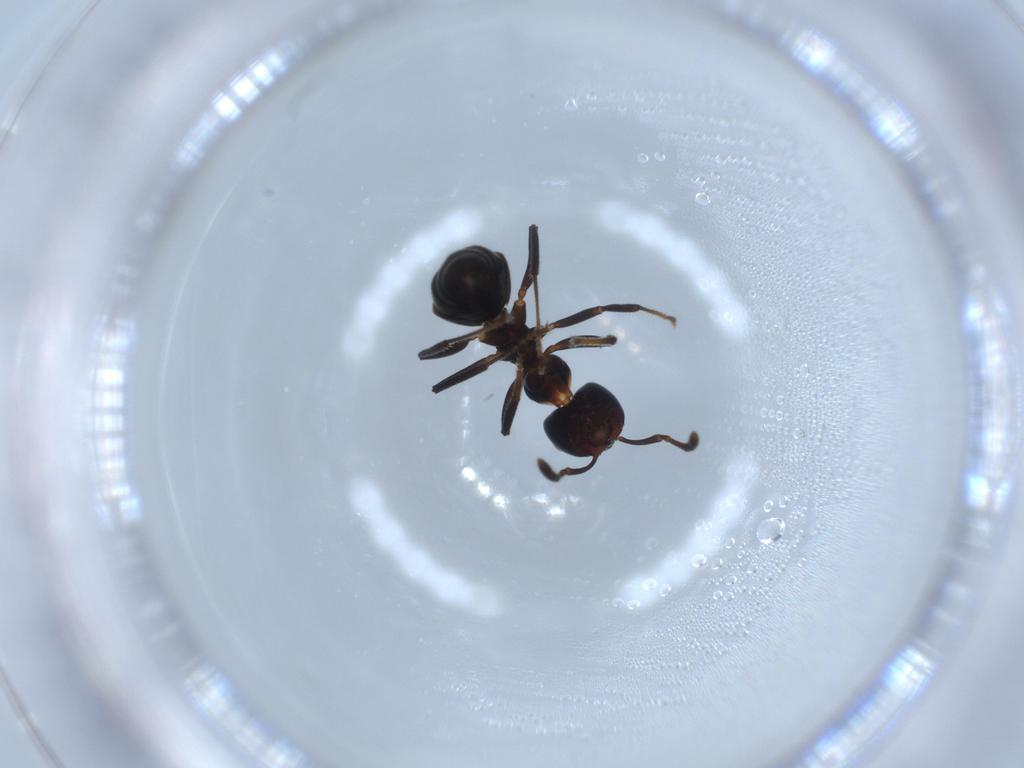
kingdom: Animalia
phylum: Arthropoda
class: Insecta
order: Hymenoptera
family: Formicidae
